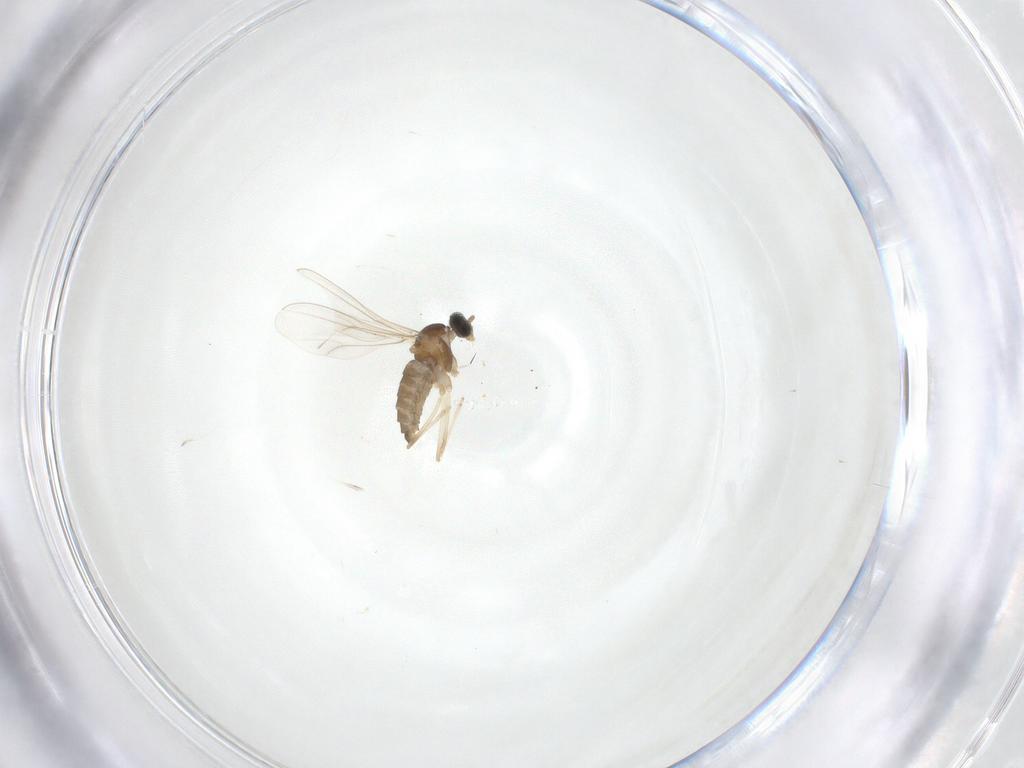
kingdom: Animalia
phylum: Arthropoda
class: Insecta
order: Diptera
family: Cecidomyiidae
